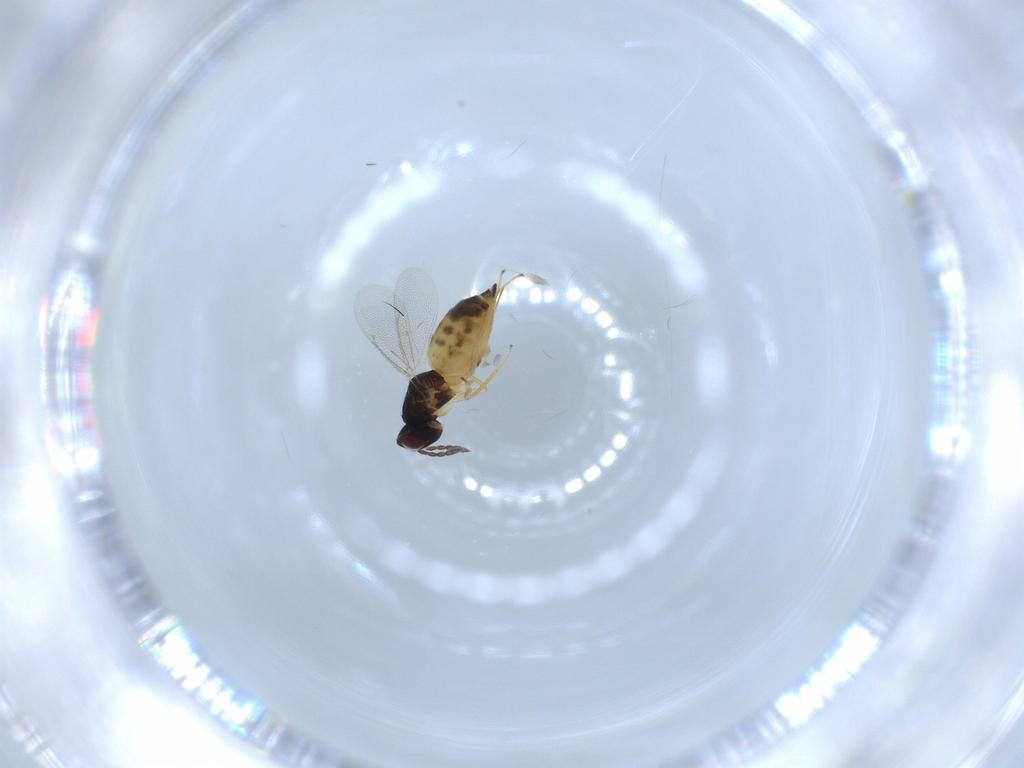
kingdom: Animalia
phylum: Arthropoda
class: Insecta
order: Hymenoptera
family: Eulophidae
